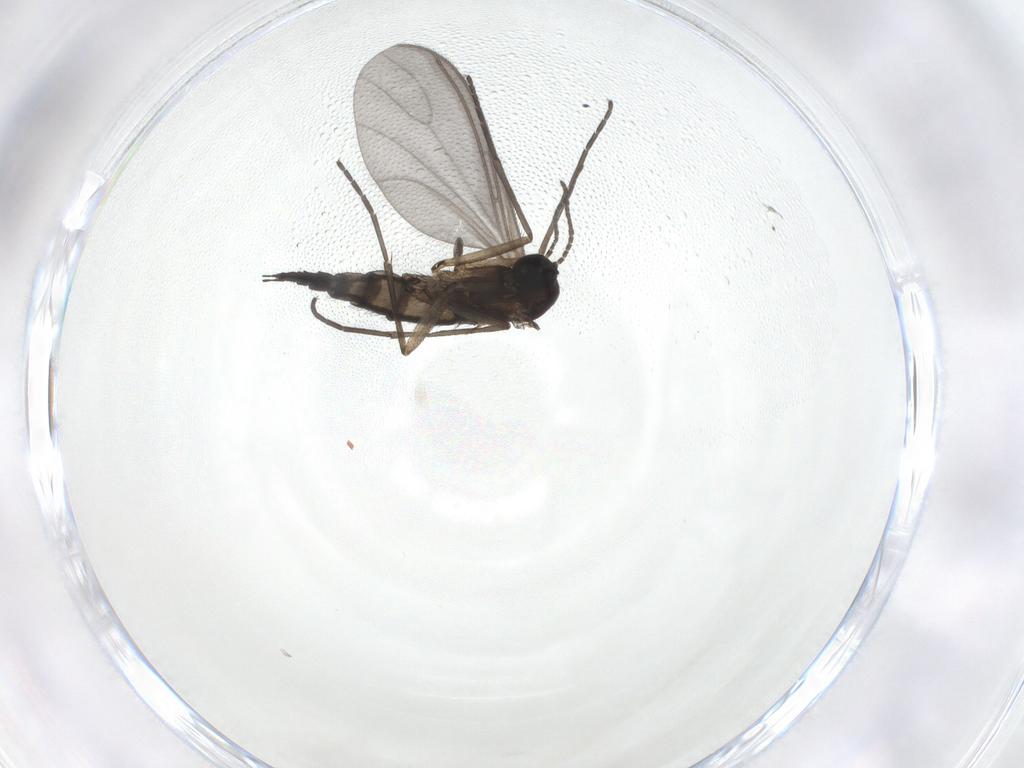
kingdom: Animalia
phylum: Arthropoda
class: Insecta
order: Diptera
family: Sciaridae
